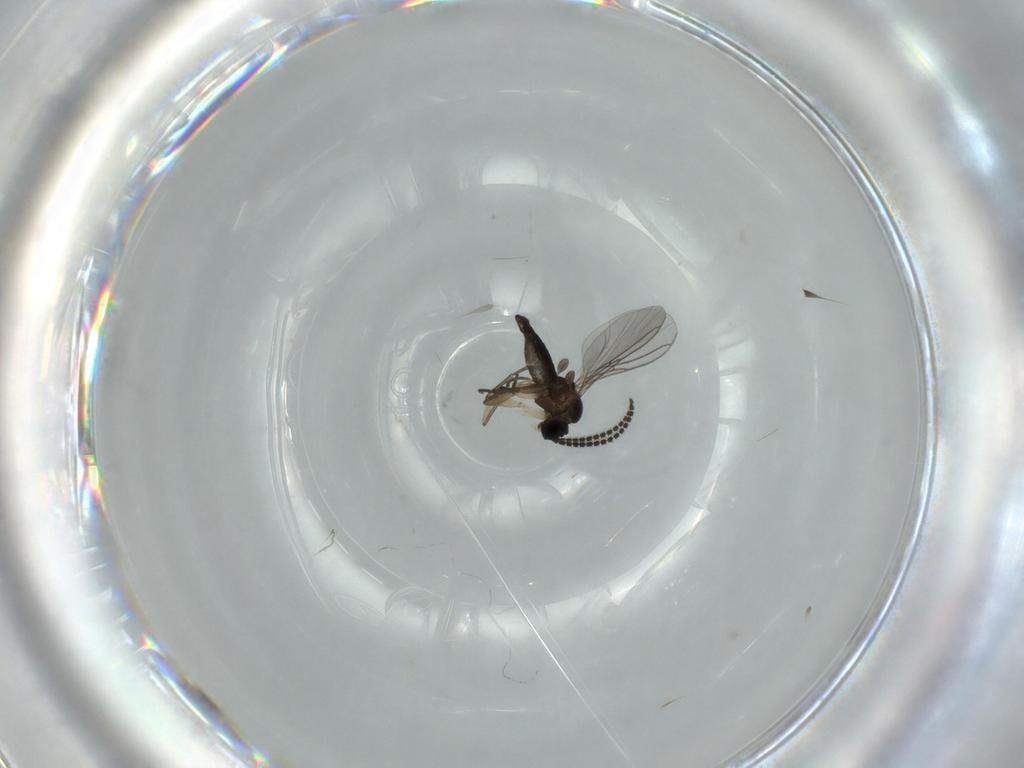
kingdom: Animalia
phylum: Arthropoda
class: Insecta
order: Diptera
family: Sciaridae
